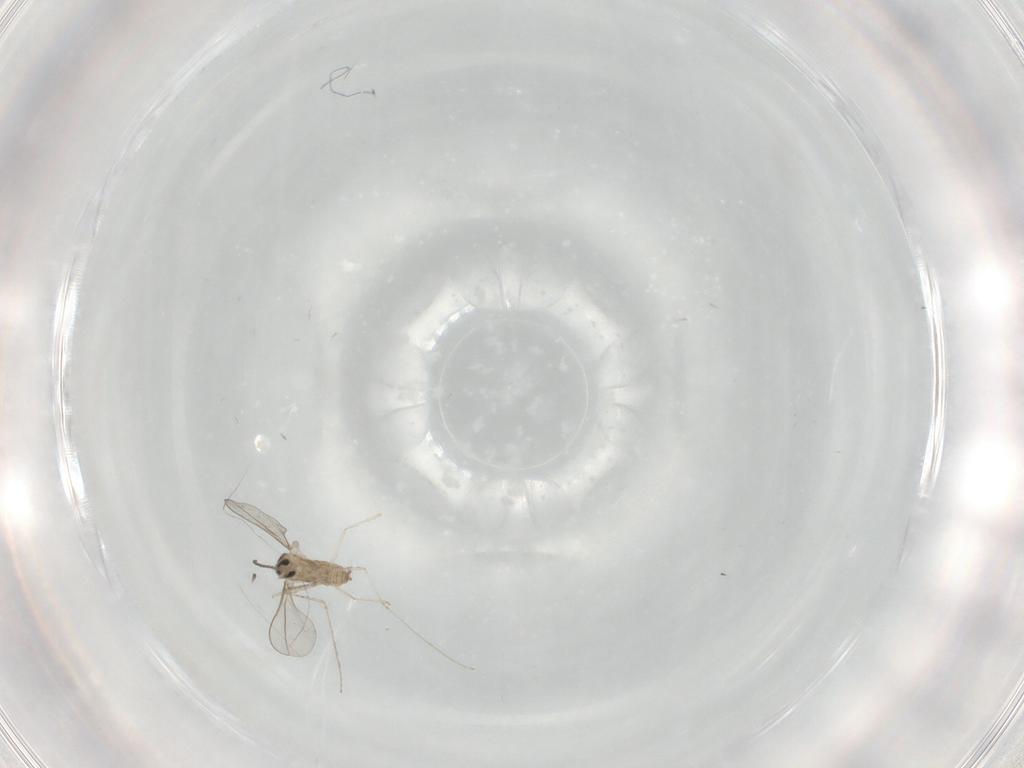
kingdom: Animalia
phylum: Arthropoda
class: Insecta
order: Diptera
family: Cecidomyiidae
